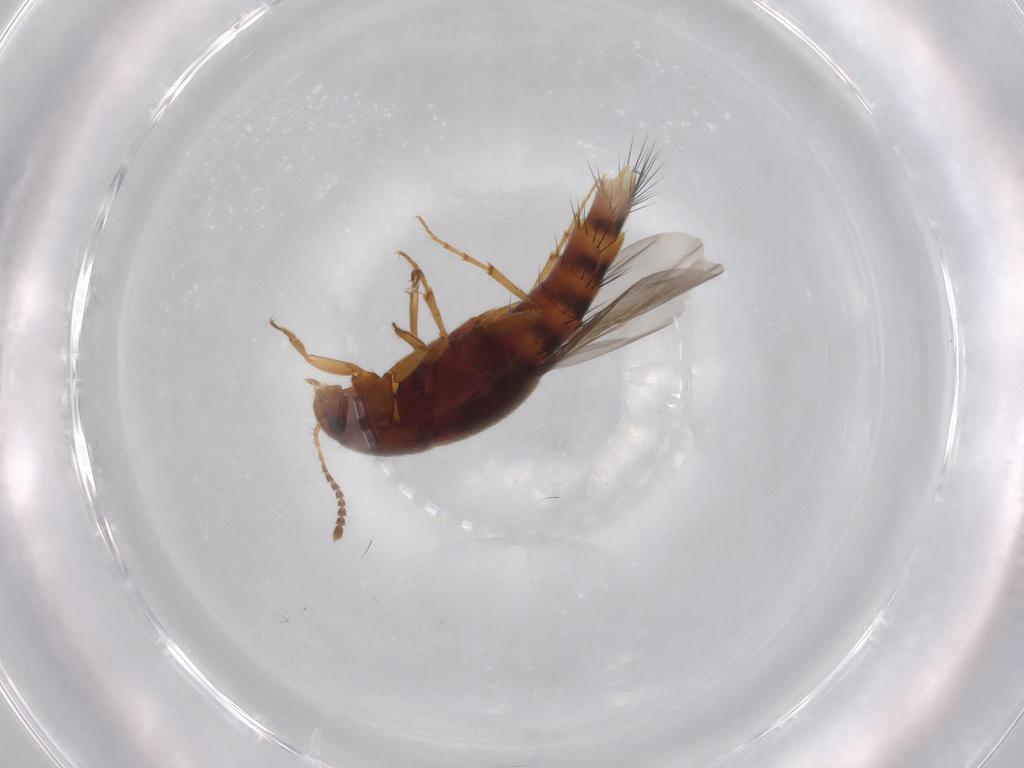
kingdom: Animalia
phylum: Arthropoda
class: Insecta
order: Coleoptera
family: Staphylinidae
